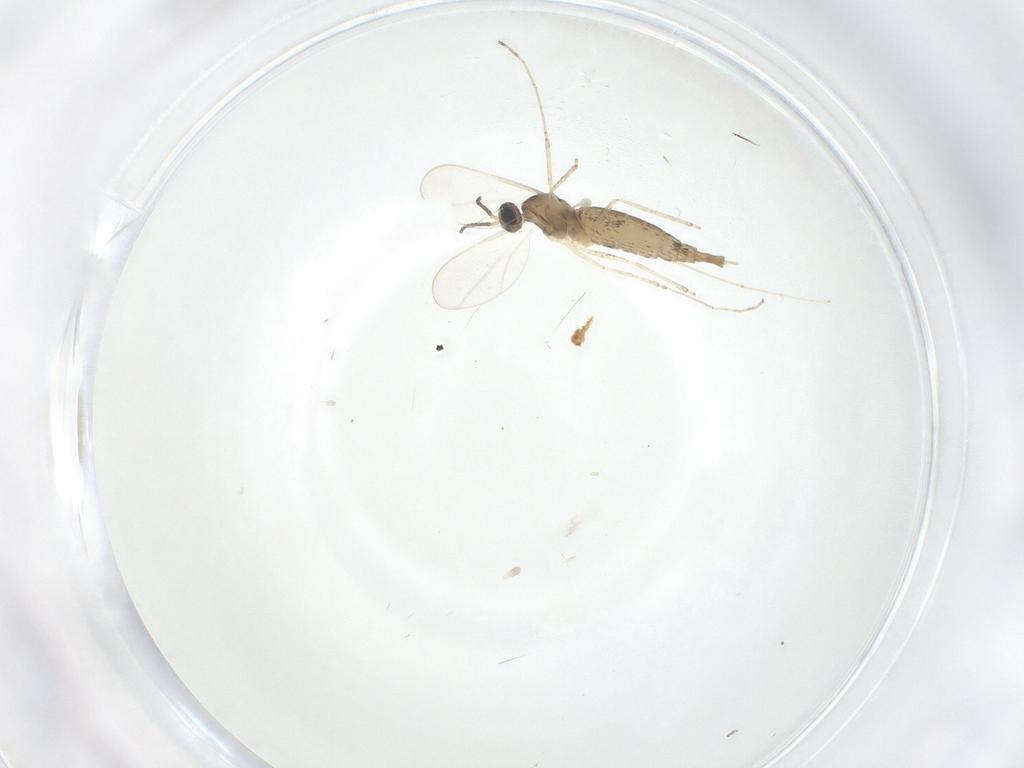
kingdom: Animalia
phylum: Arthropoda
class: Insecta
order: Diptera
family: Cecidomyiidae
